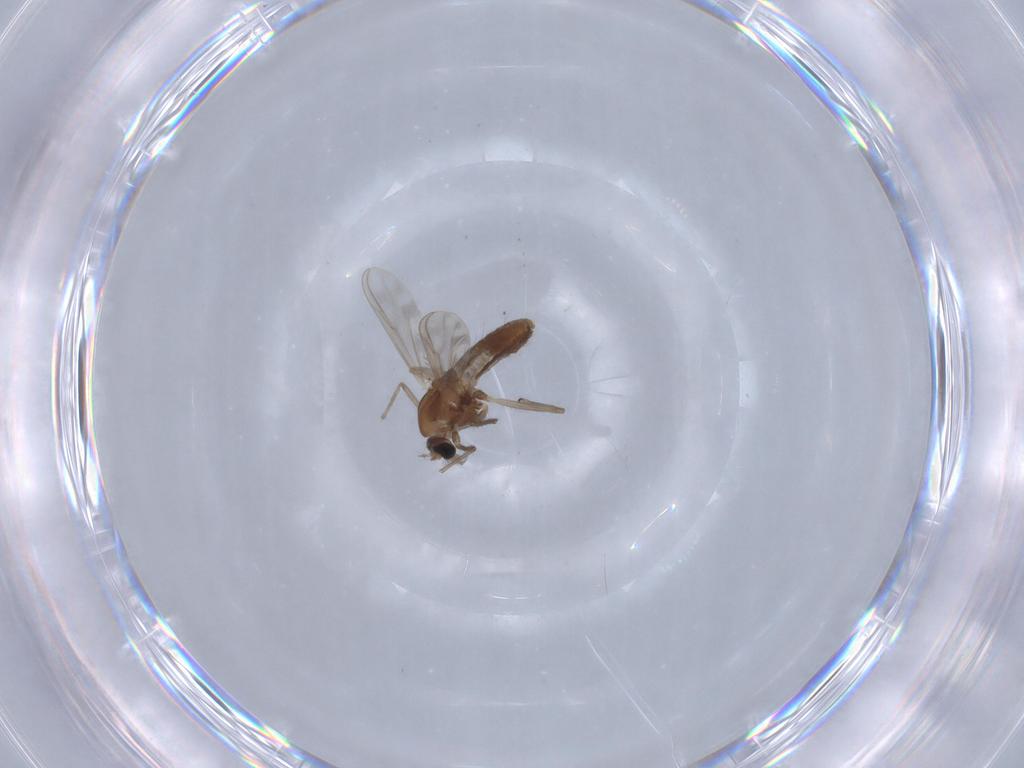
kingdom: Animalia
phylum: Arthropoda
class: Insecta
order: Diptera
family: Chironomidae
